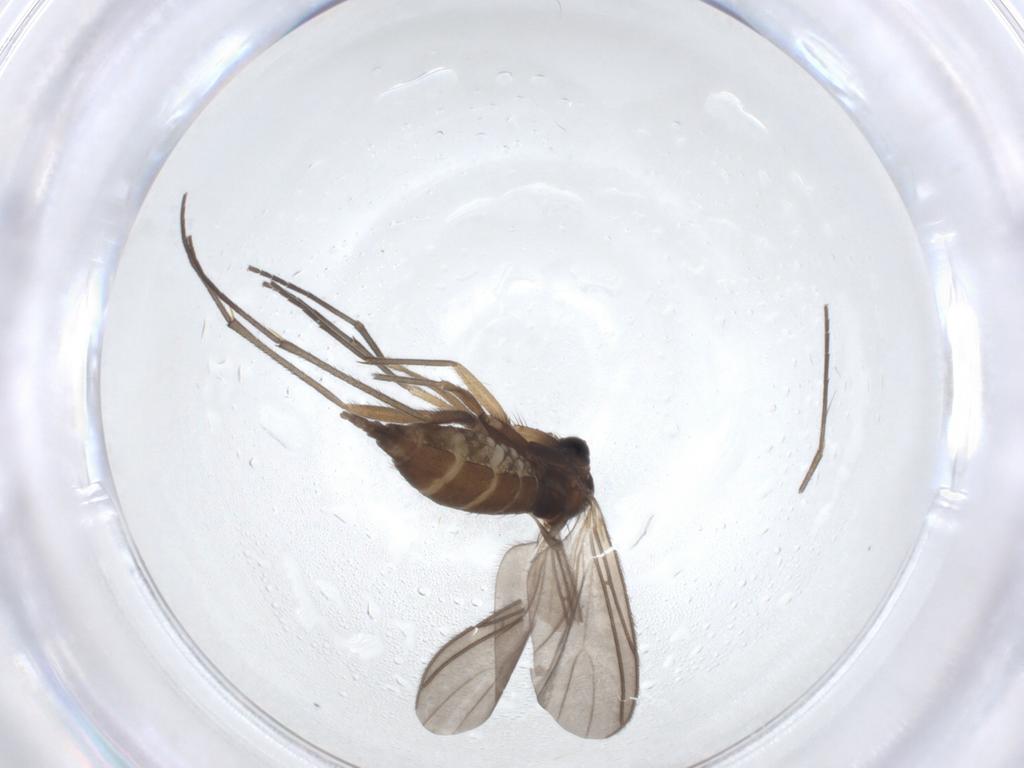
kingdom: Animalia
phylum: Arthropoda
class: Insecta
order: Diptera
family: Sciaridae
